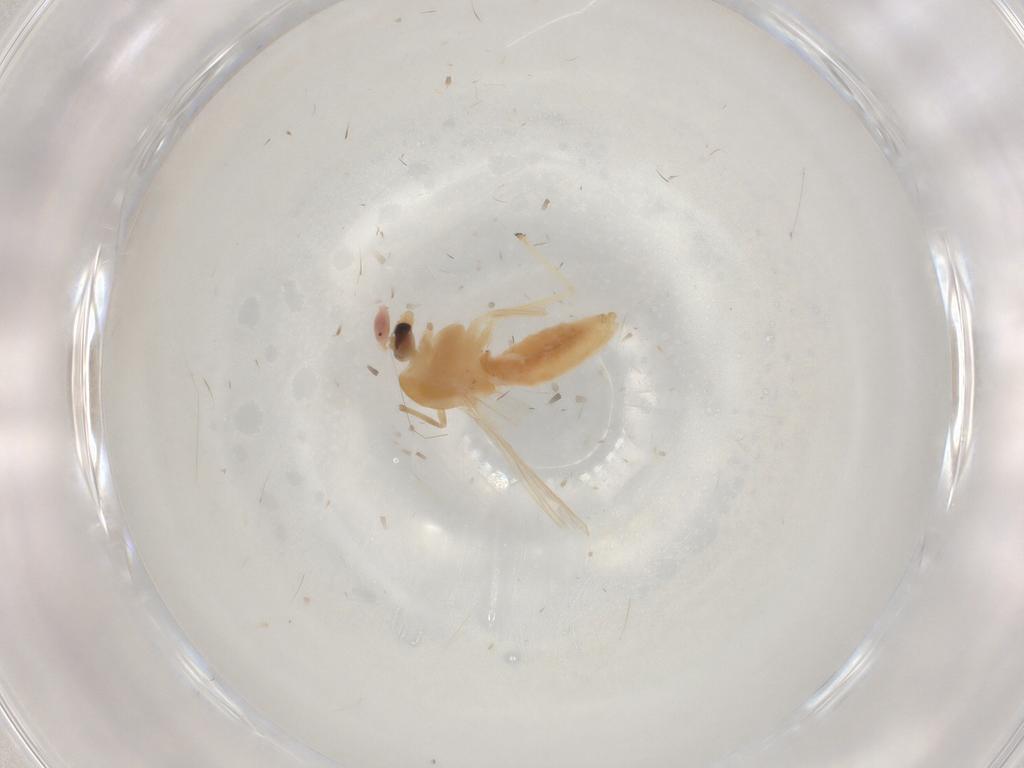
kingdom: Animalia
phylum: Arthropoda
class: Insecta
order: Diptera
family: Chironomidae
